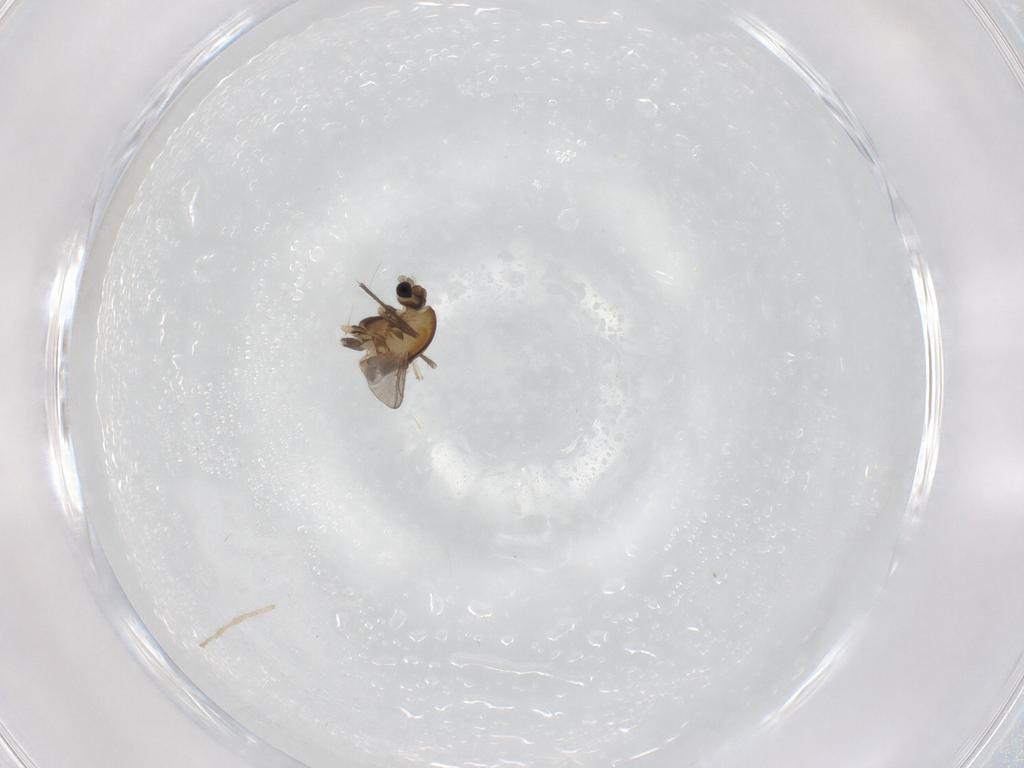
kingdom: Animalia
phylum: Arthropoda
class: Insecta
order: Diptera
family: Chironomidae
